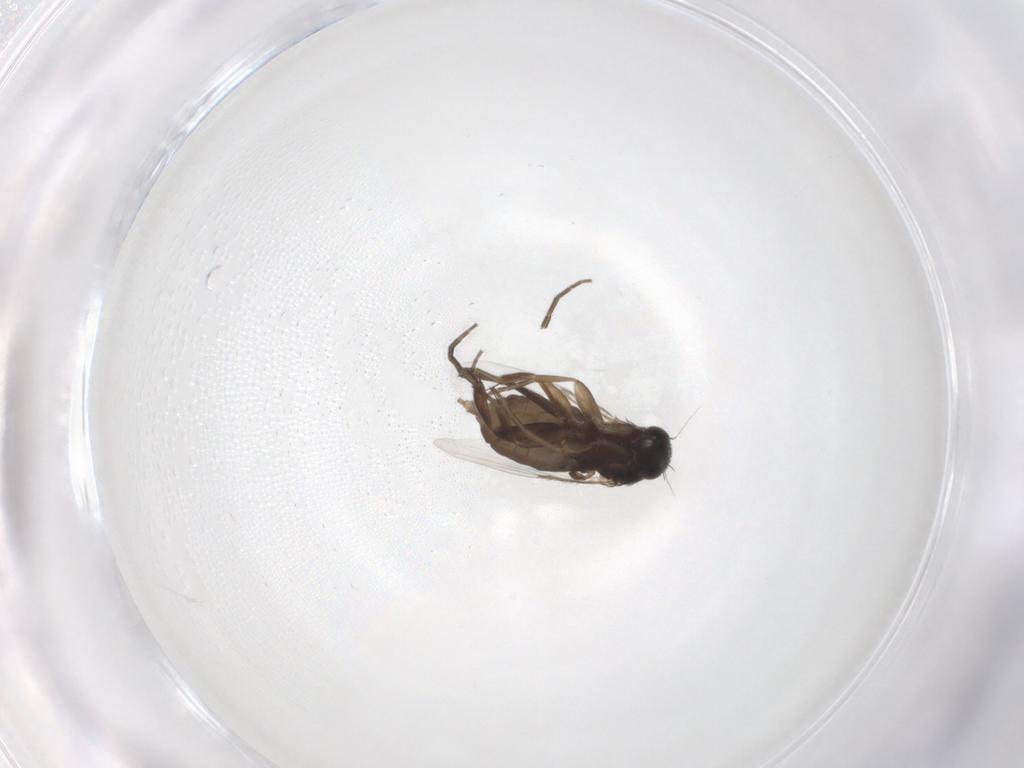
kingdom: Animalia
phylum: Arthropoda
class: Insecta
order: Diptera
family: Phoridae
